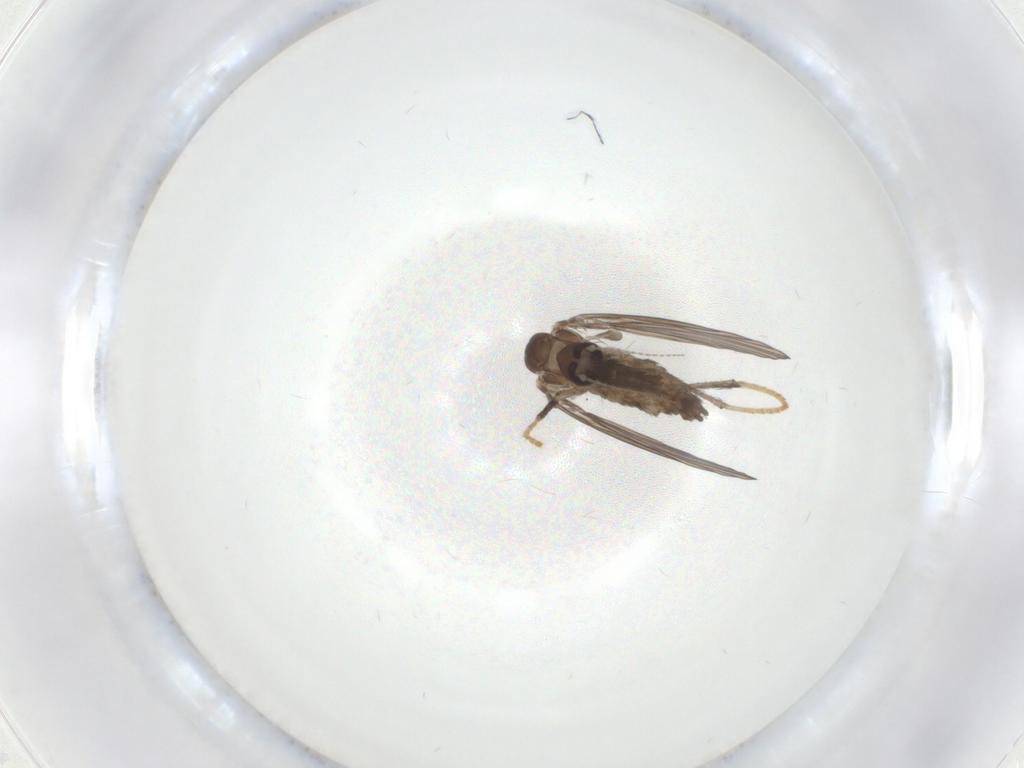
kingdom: Animalia
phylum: Arthropoda
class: Insecta
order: Diptera
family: Psychodidae
